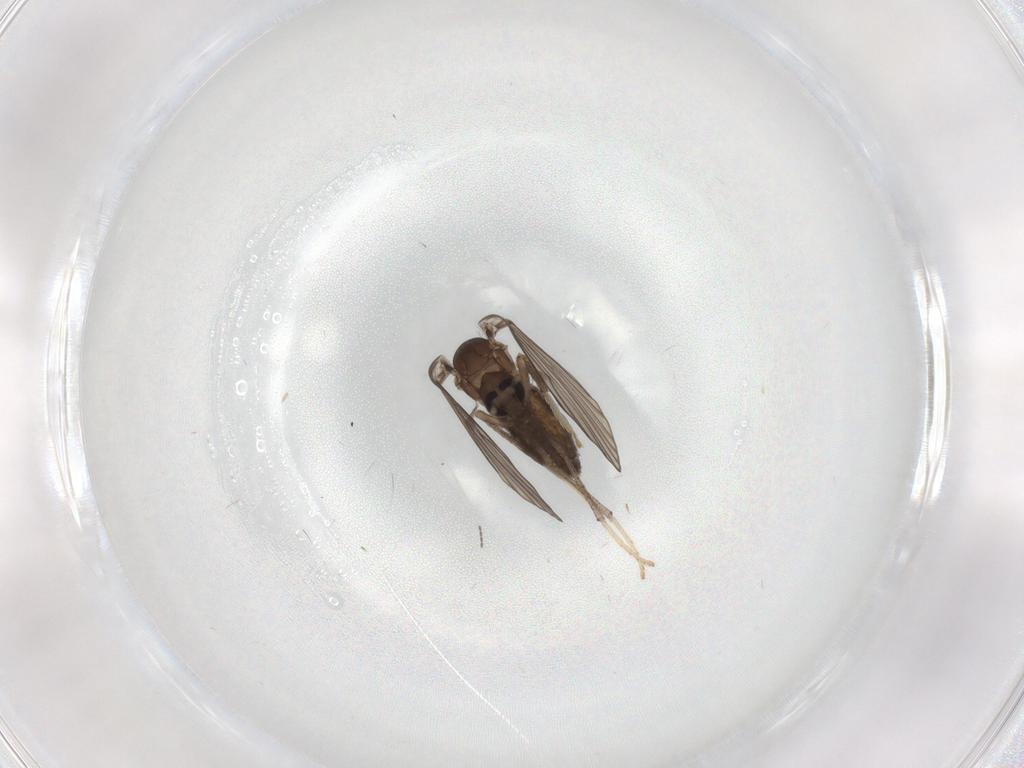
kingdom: Animalia
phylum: Arthropoda
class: Insecta
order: Diptera
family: Psychodidae
